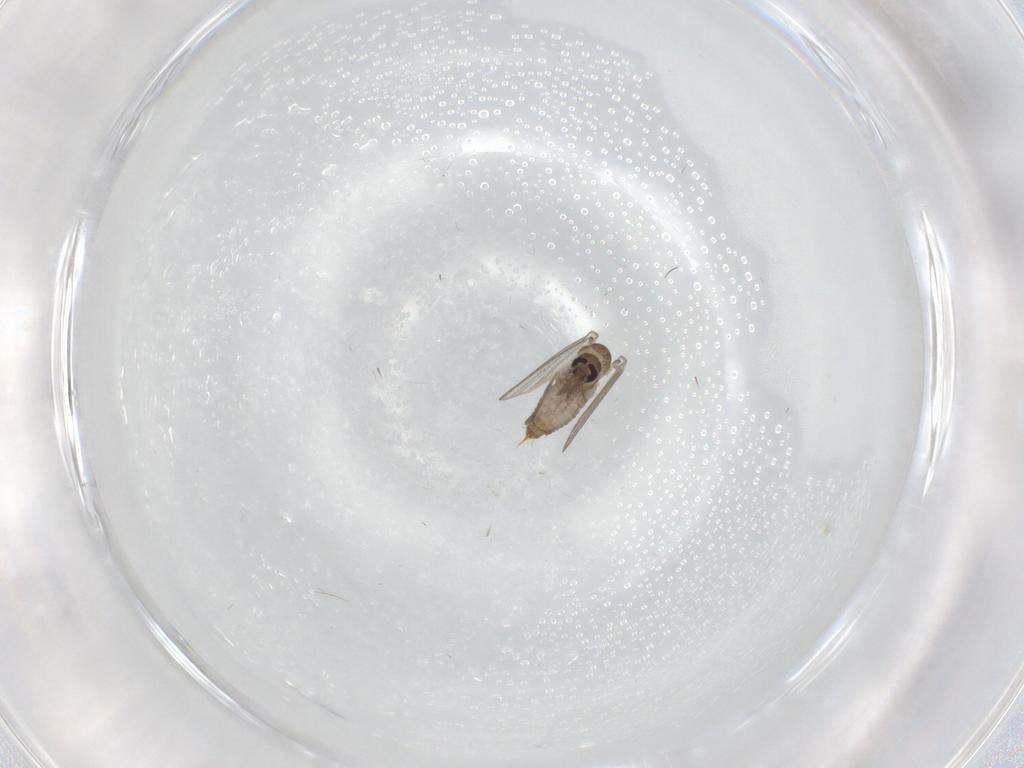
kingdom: Animalia
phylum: Arthropoda
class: Insecta
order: Diptera
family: Psychodidae
